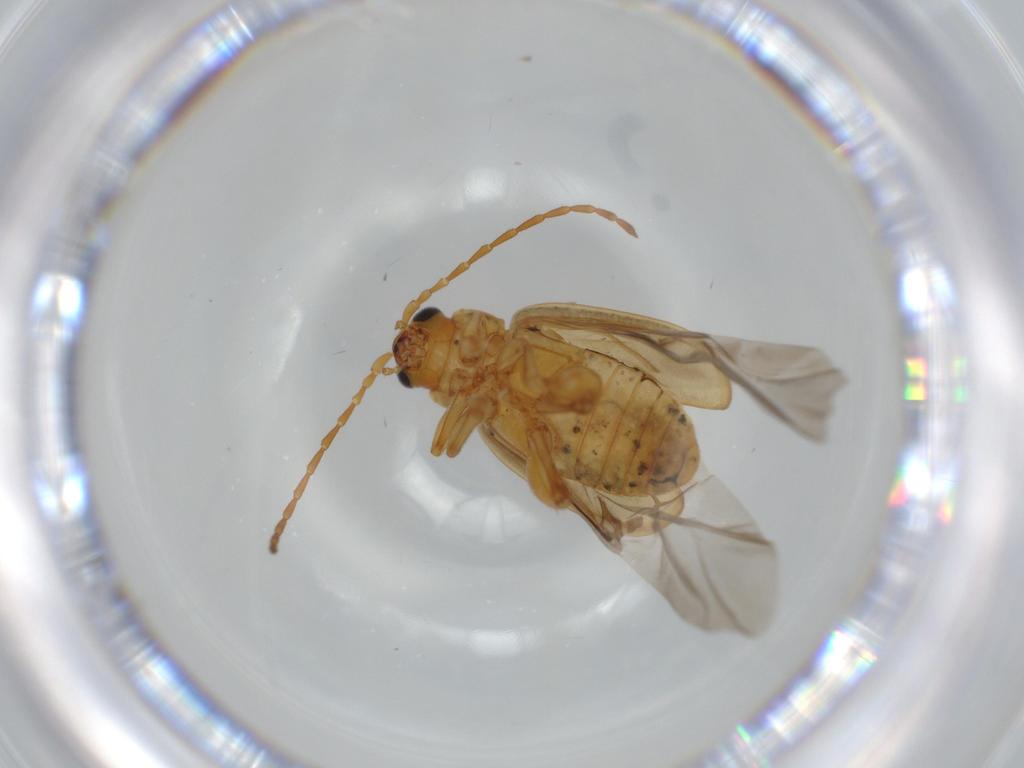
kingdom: Animalia
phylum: Arthropoda
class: Insecta
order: Coleoptera
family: Chrysomelidae
